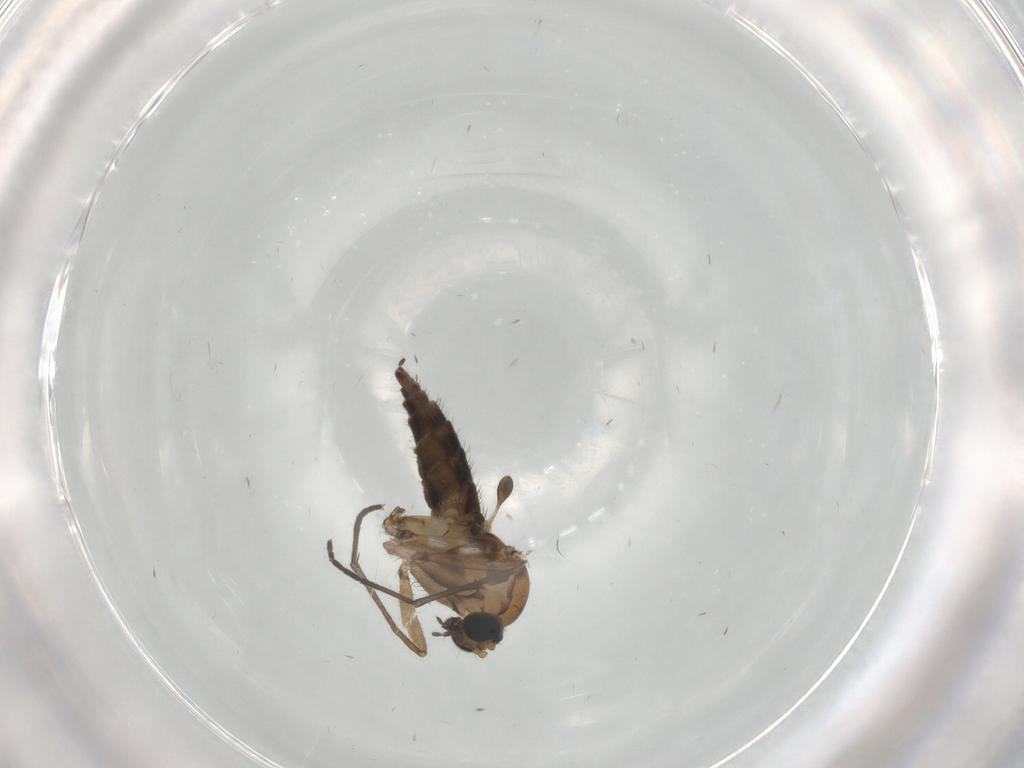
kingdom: Animalia
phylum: Arthropoda
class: Insecta
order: Diptera
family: Sciaridae
